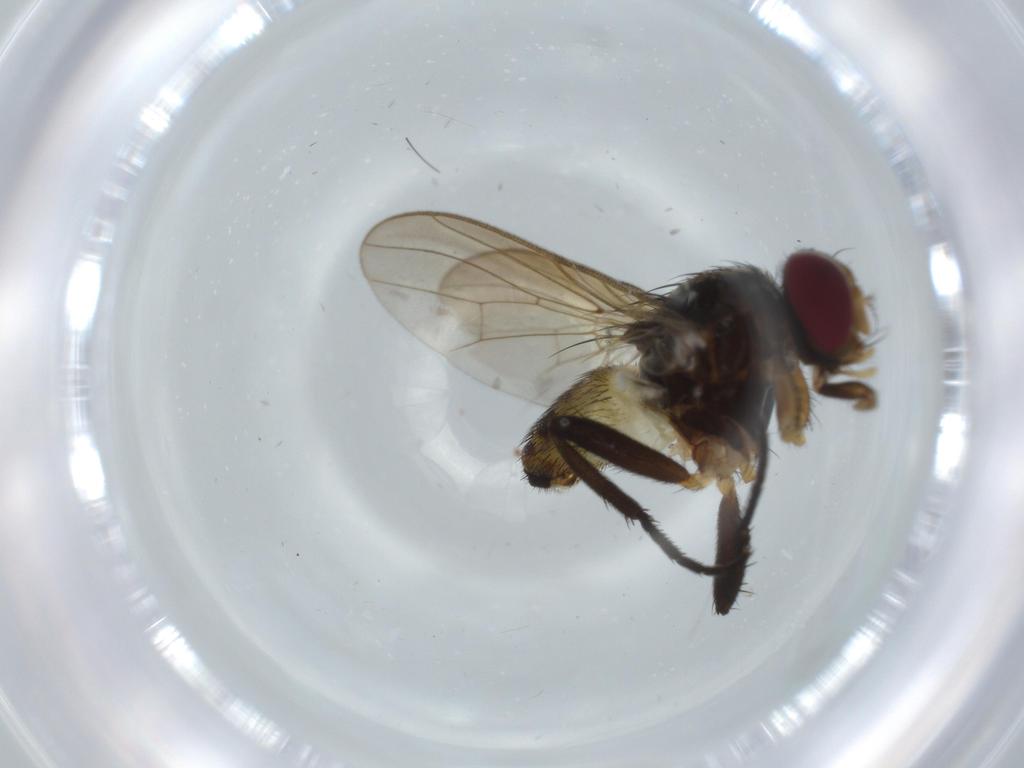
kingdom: Animalia
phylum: Arthropoda
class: Insecta
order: Diptera
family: Anthomyiidae
